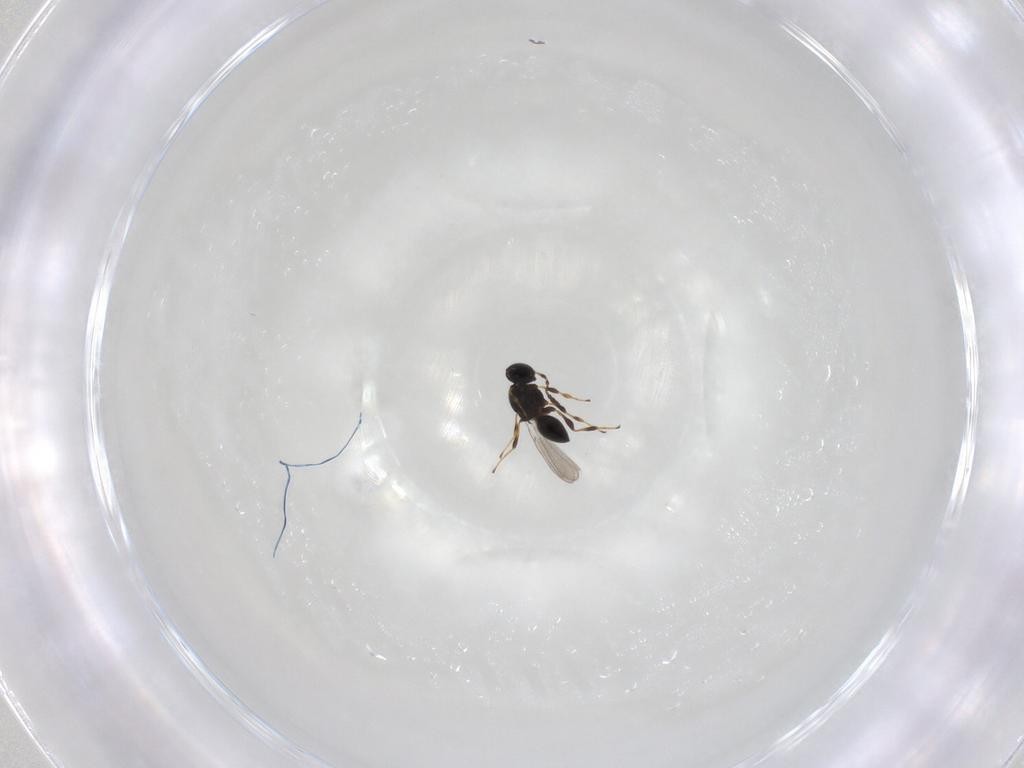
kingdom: Animalia
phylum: Arthropoda
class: Insecta
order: Hymenoptera
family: Platygastridae
